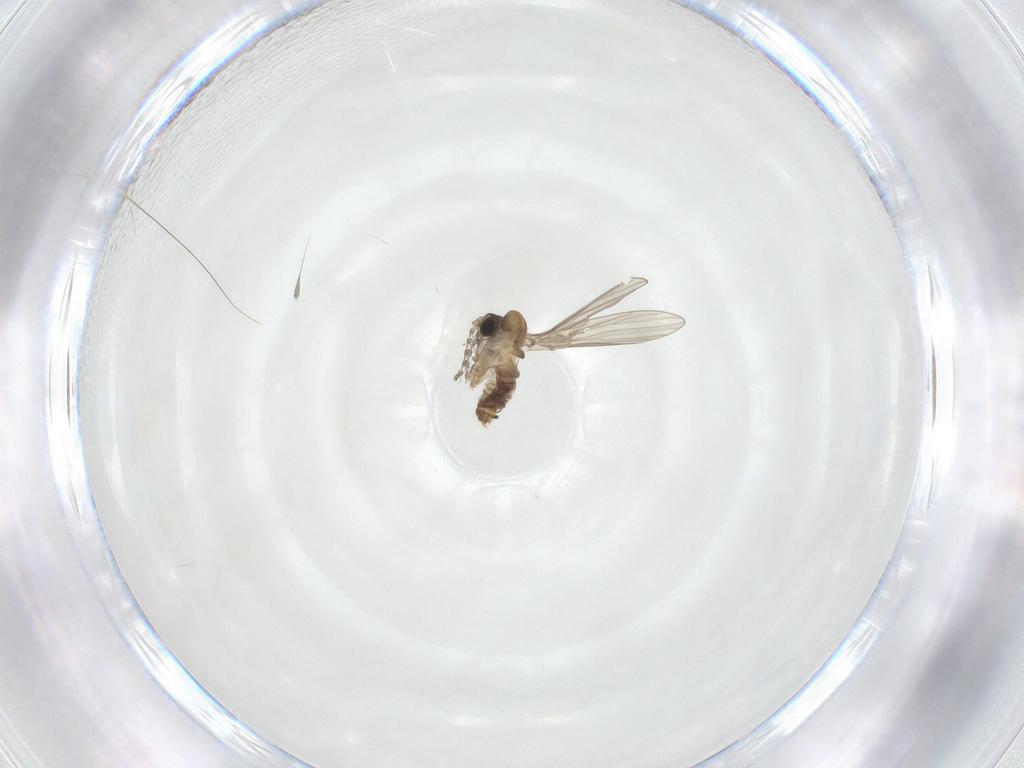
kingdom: Animalia
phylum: Arthropoda
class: Insecta
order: Diptera
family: Psychodidae
